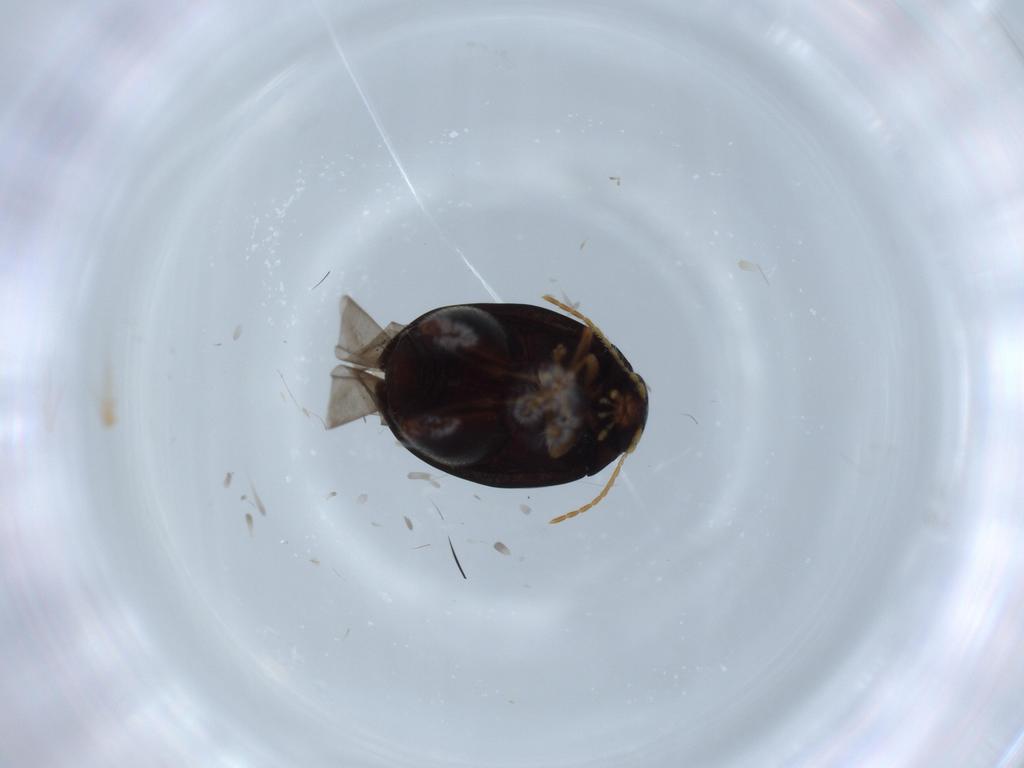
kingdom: Animalia
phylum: Arthropoda
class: Insecta
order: Coleoptera
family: Chrysomelidae
